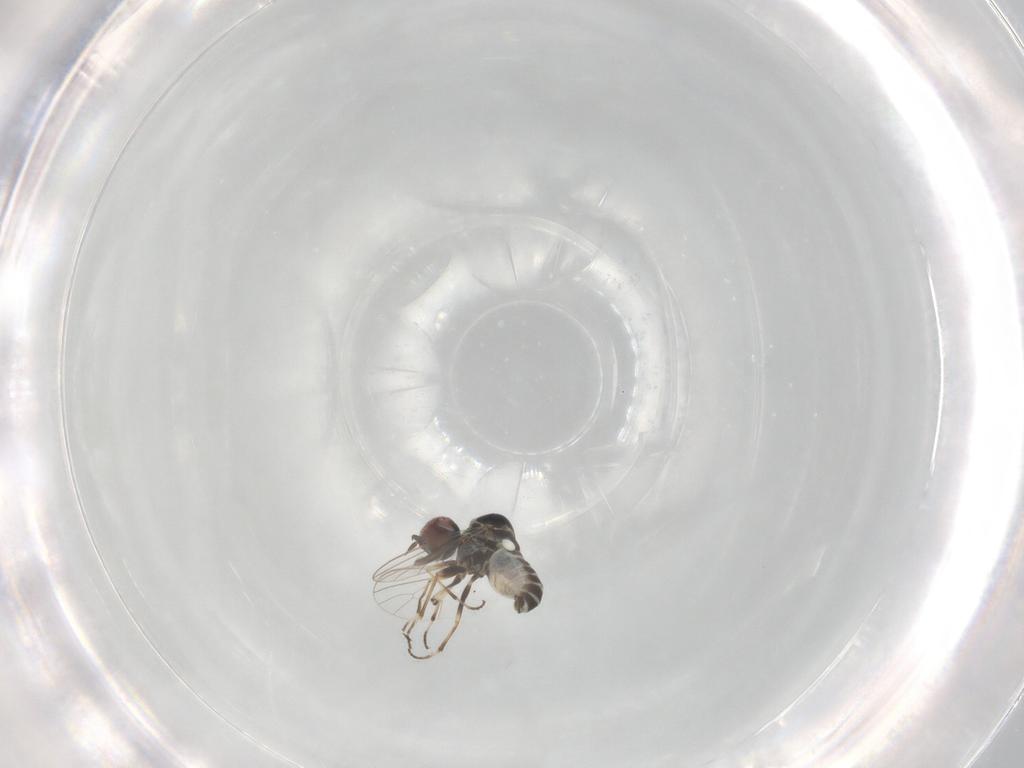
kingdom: Animalia
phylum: Arthropoda
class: Insecta
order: Diptera
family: Mythicomyiidae
